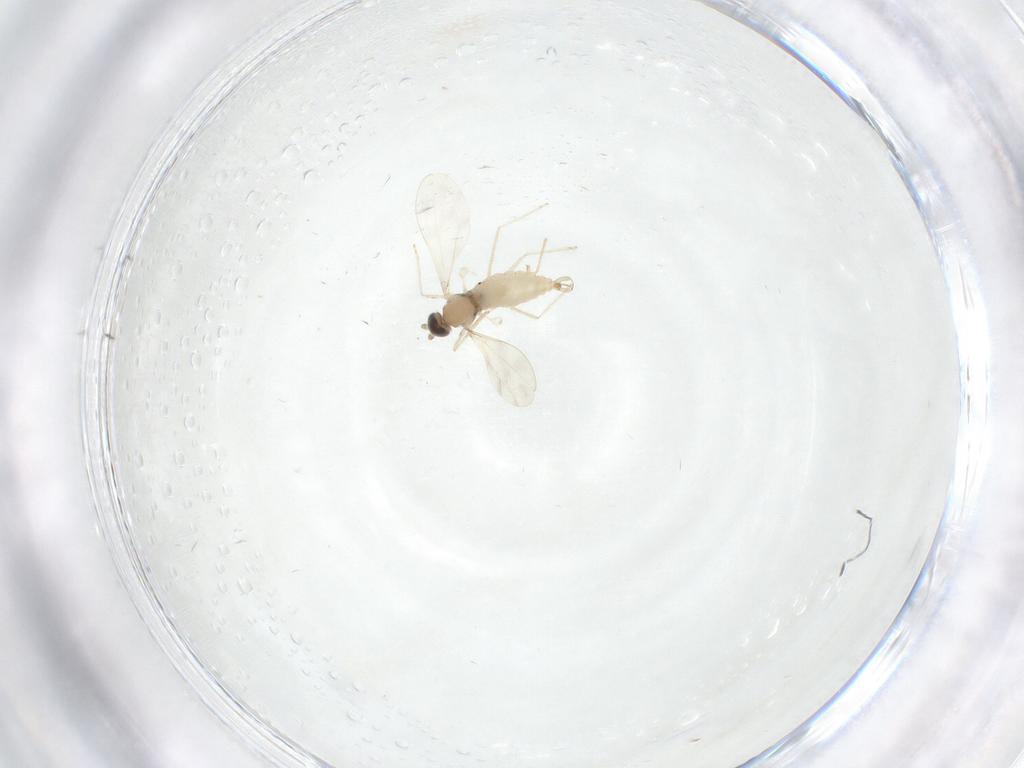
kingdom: Animalia
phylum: Arthropoda
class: Insecta
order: Diptera
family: Cecidomyiidae
